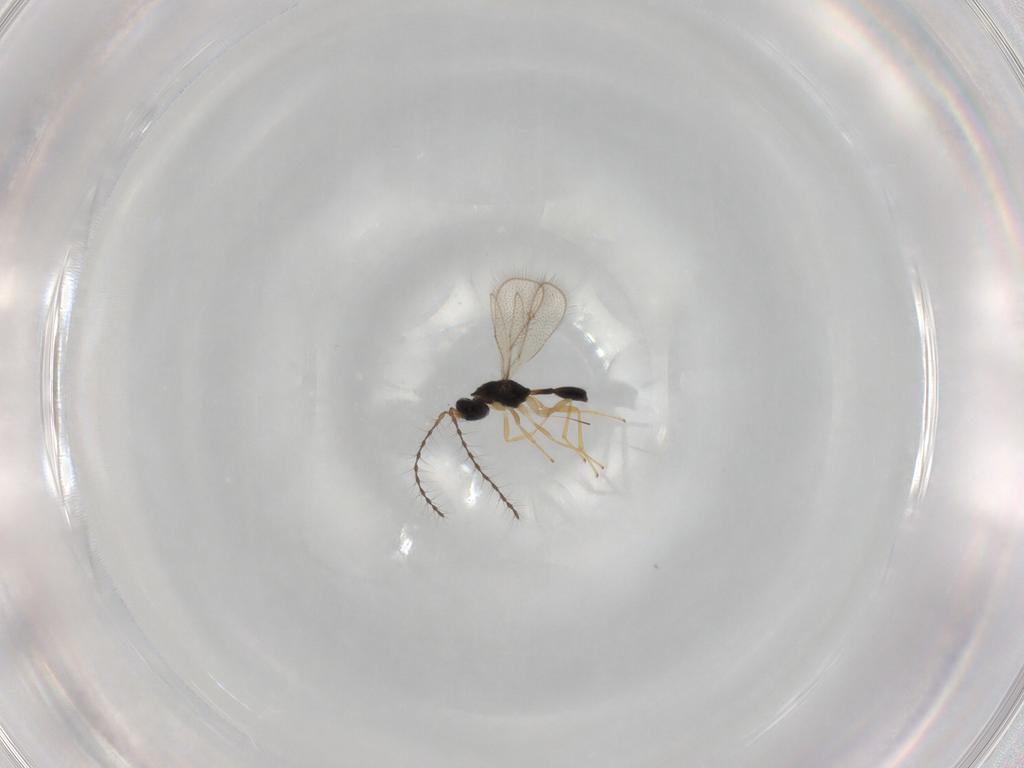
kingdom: Animalia
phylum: Arthropoda
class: Insecta
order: Hymenoptera
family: Diparidae
